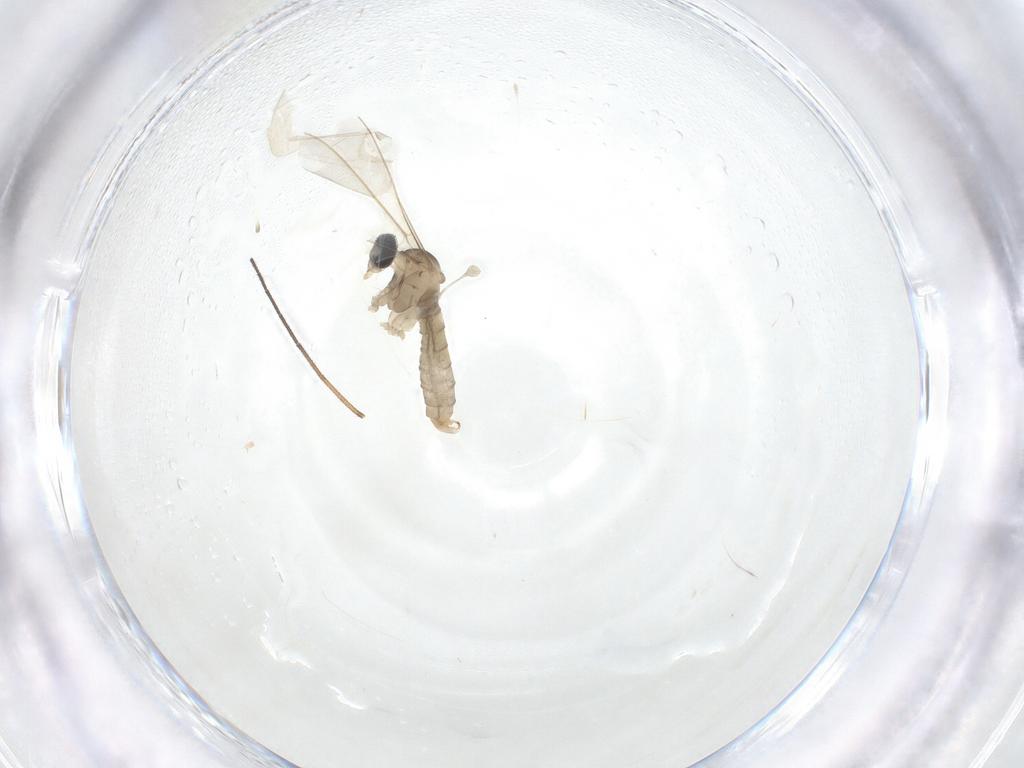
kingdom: Animalia
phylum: Arthropoda
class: Insecta
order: Diptera
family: Cecidomyiidae
